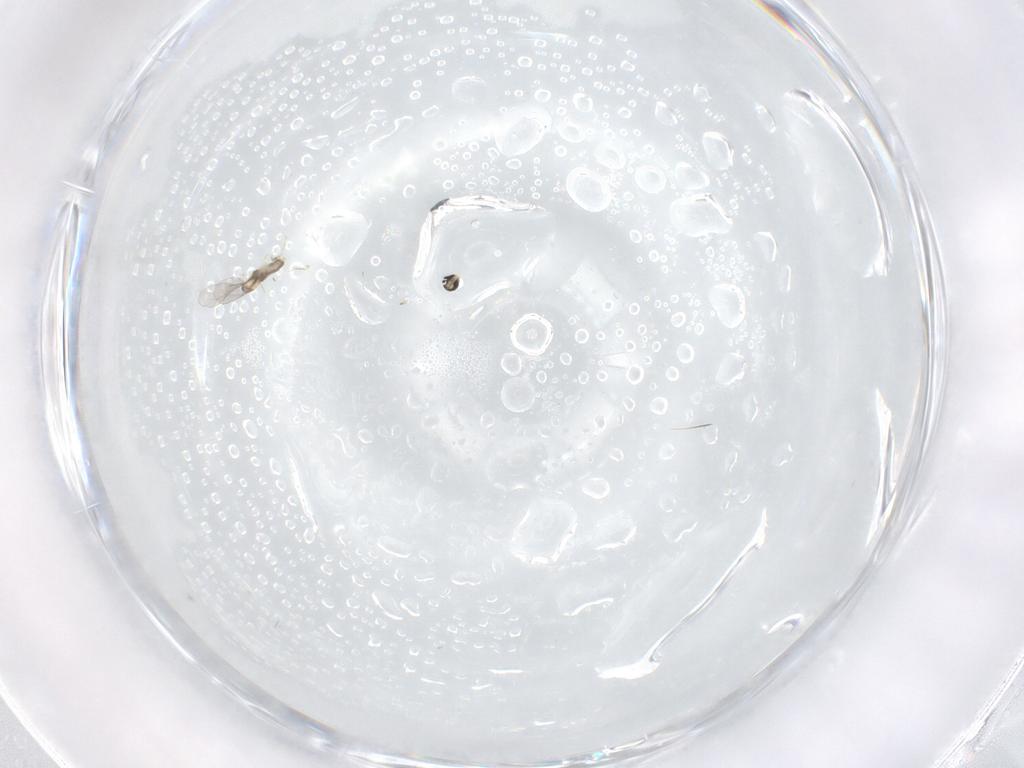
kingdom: Animalia
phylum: Arthropoda
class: Insecta
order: Diptera
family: Cecidomyiidae
